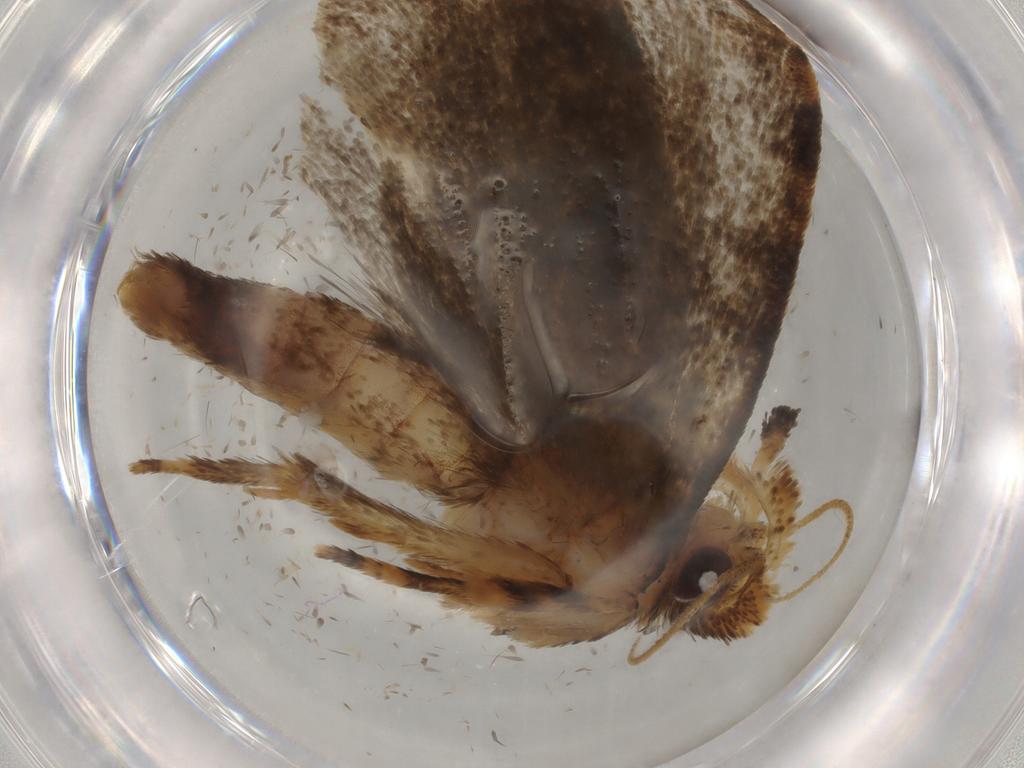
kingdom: Animalia
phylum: Arthropoda
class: Insecta
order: Lepidoptera
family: Tineidae
